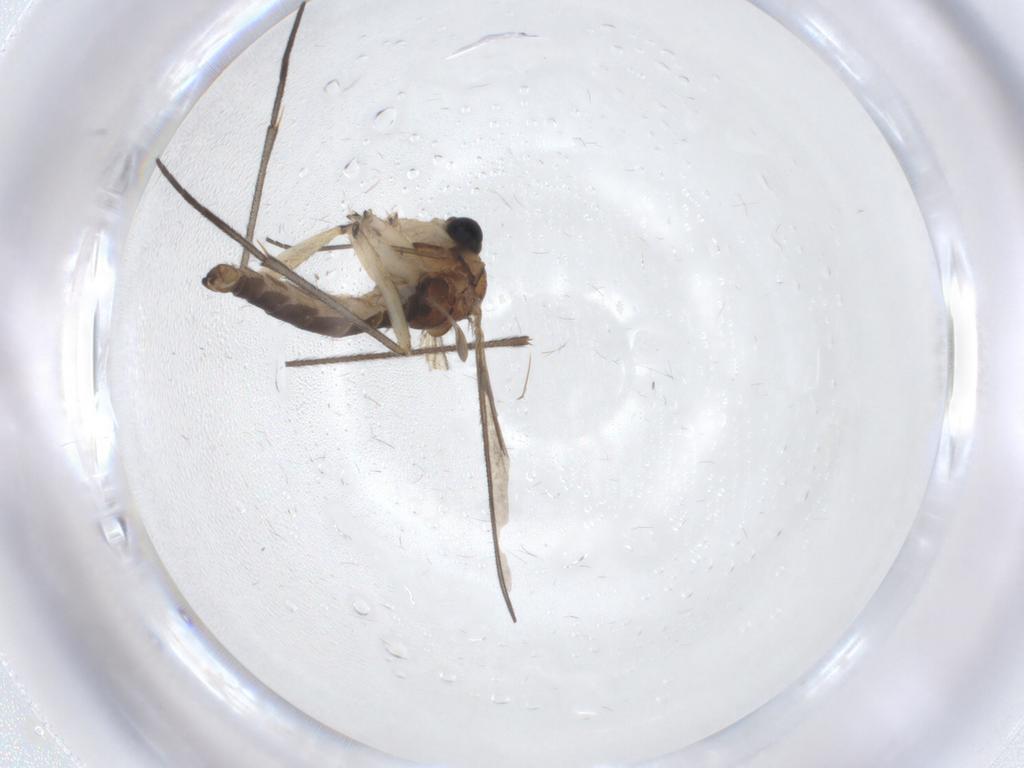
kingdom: Animalia
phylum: Arthropoda
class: Insecta
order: Diptera
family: Sciaridae
